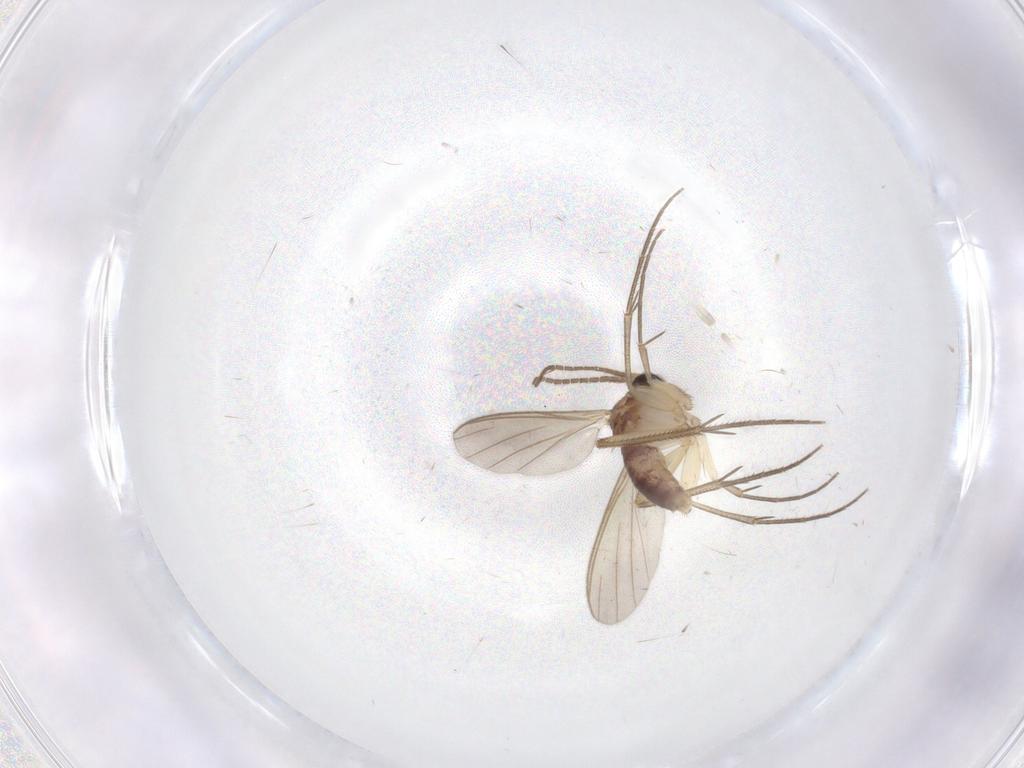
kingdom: Animalia
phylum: Arthropoda
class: Insecta
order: Diptera
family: Mycetophilidae
